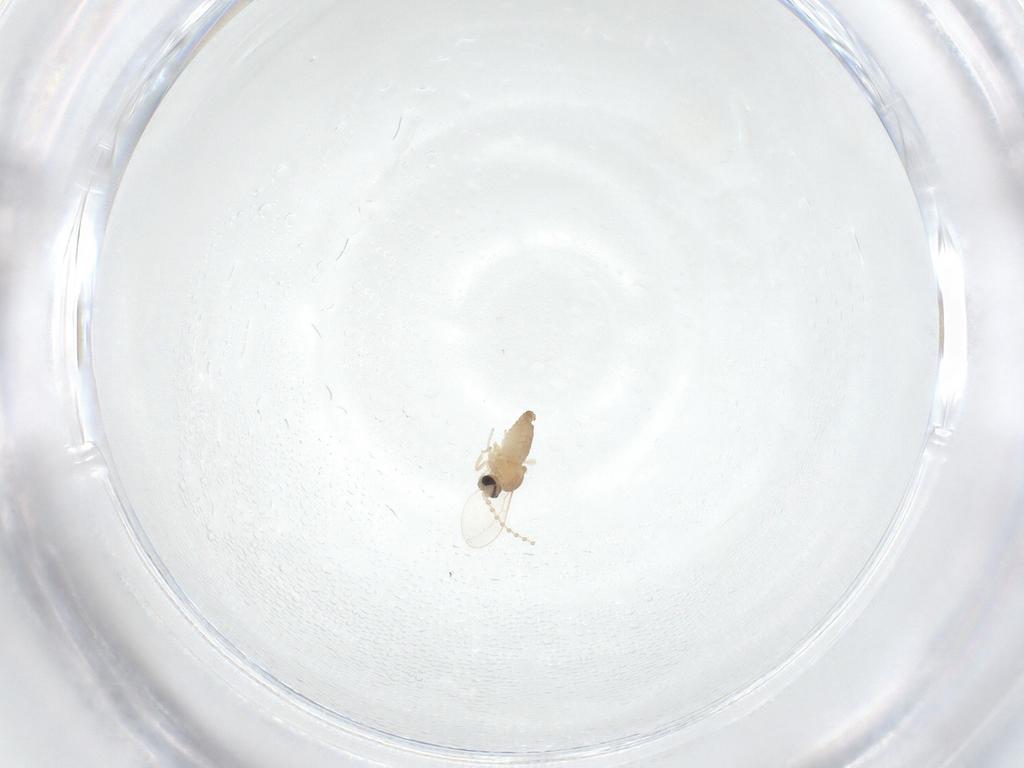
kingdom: Animalia
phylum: Arthropoda
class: Insecta
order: Diptera
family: Cecidomyiidae
